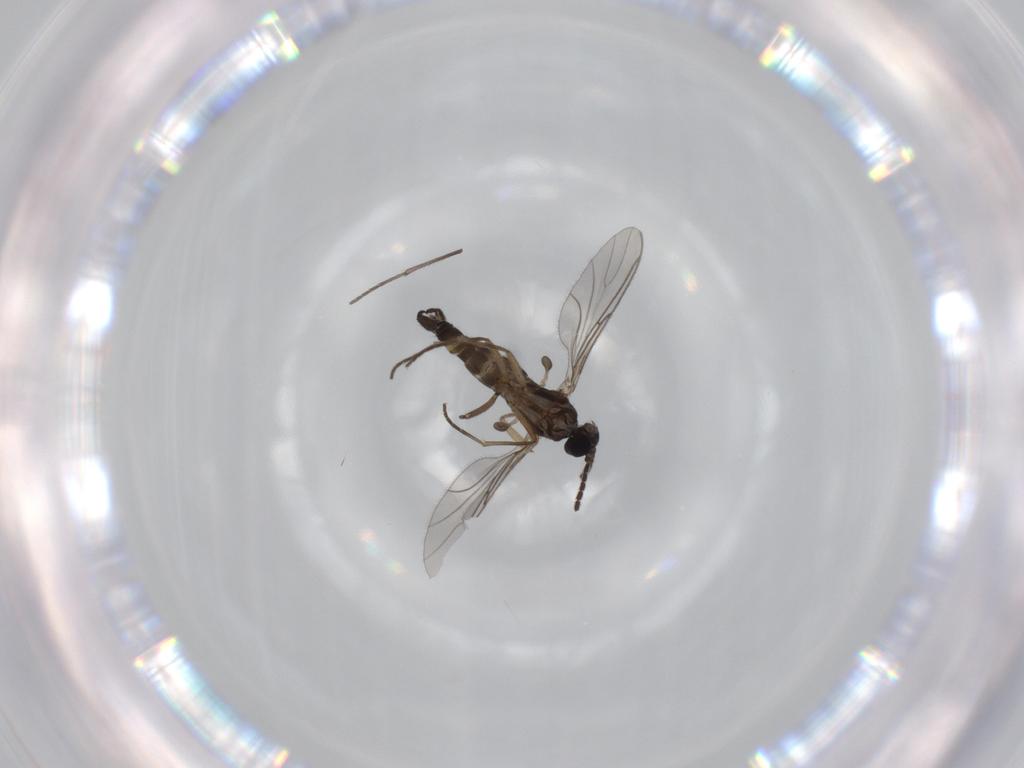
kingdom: Animalia
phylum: Arthropoda
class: Insecta
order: Diptera
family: Sciaridae
